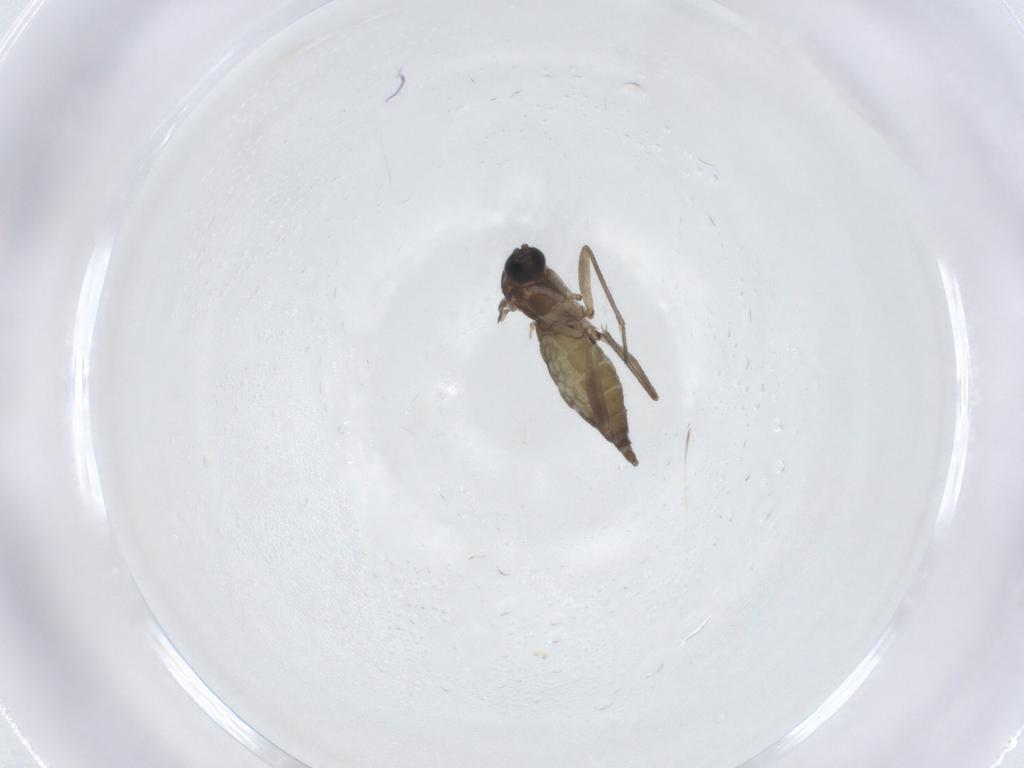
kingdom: Animalia
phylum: Arthropoda
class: Insecta
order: Diptera
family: Sciaridae
